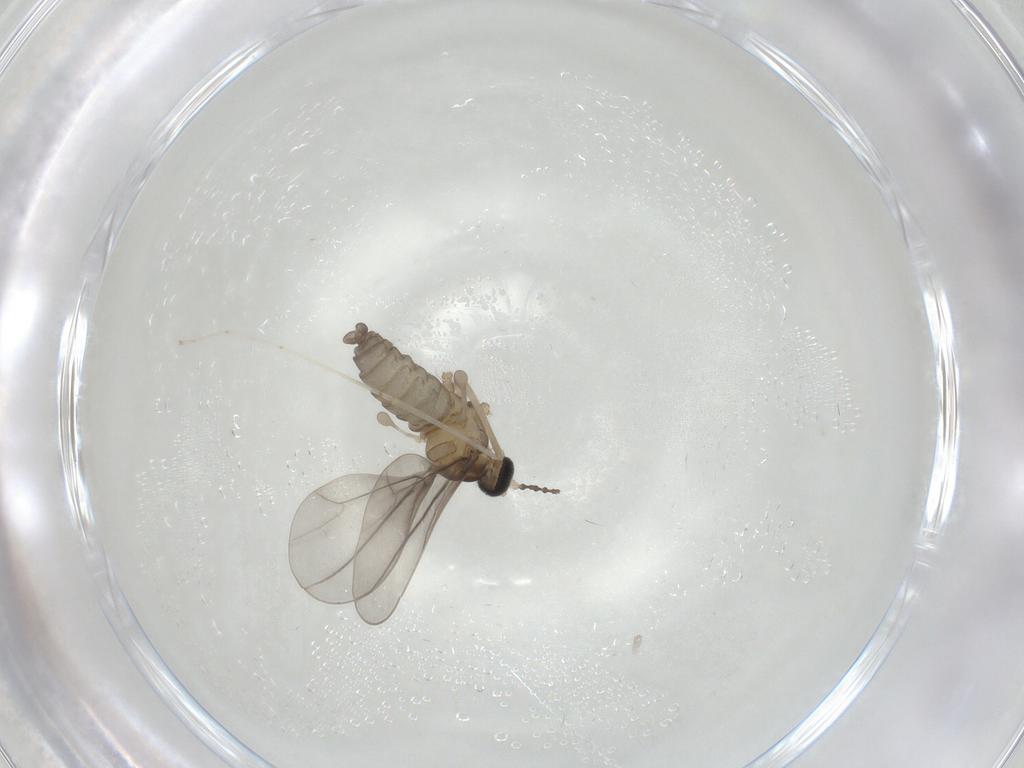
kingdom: Animalia
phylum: Arthropoda
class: Insecta
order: Diptera
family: Cecidomyiidae
